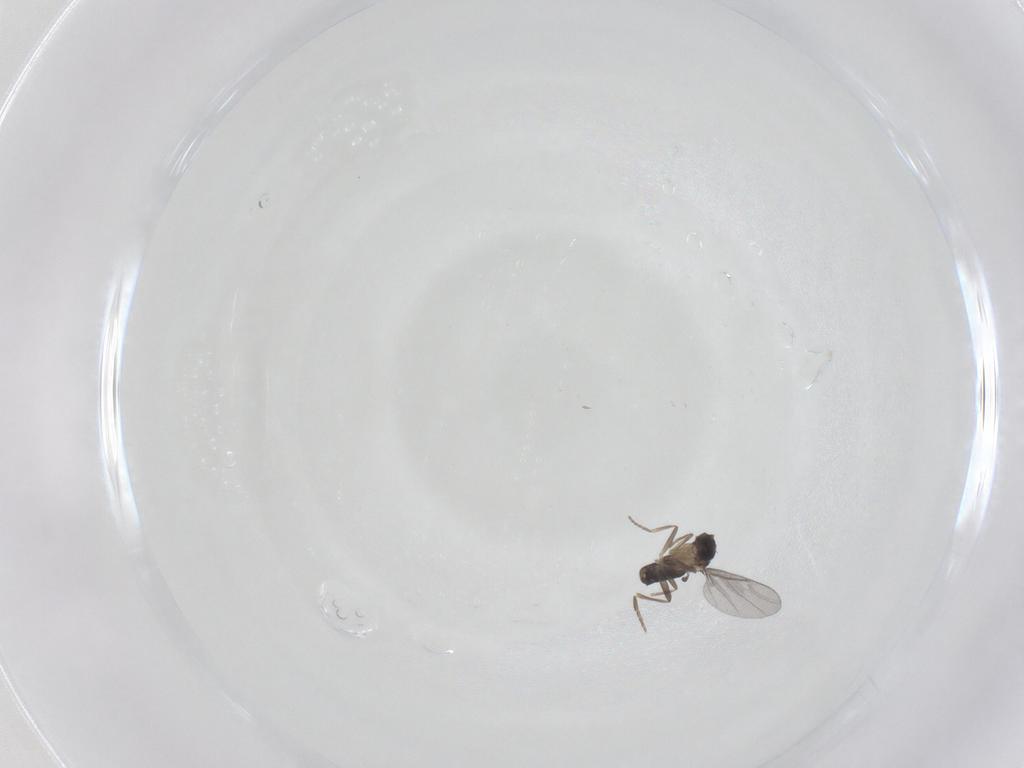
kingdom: Animalia
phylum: Arthropoda
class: Insecta
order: Diptera
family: Phoridae
